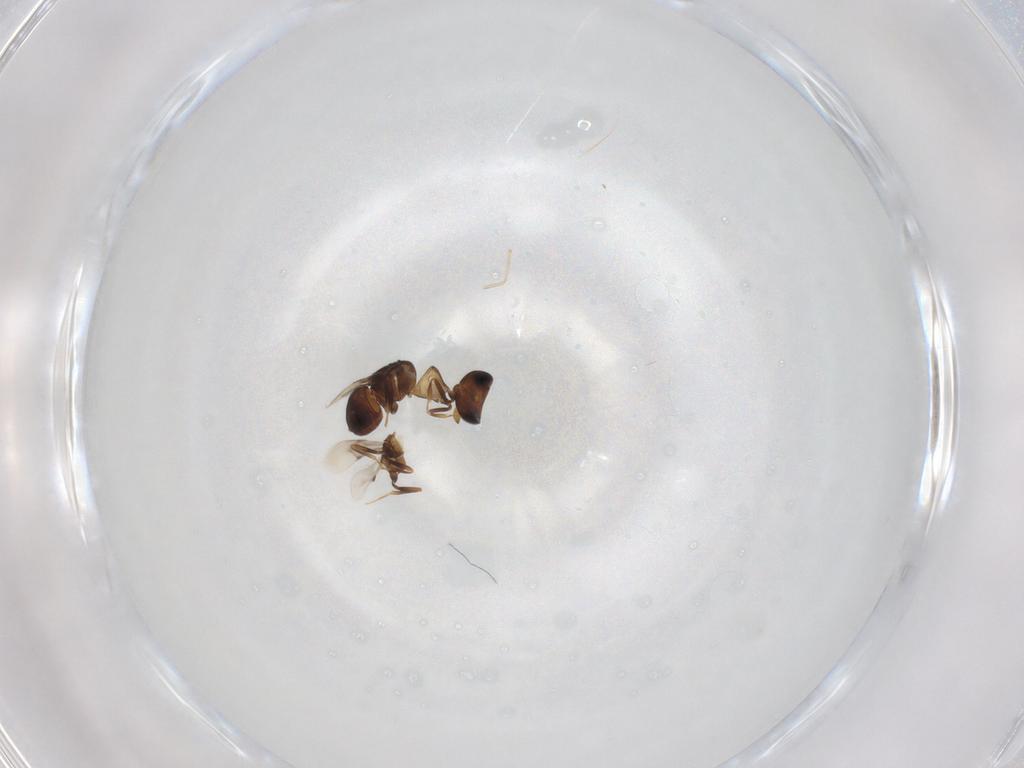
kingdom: Animalia
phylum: Arthropoda
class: Insecta
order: Hymenoptera
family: Scelionidae
